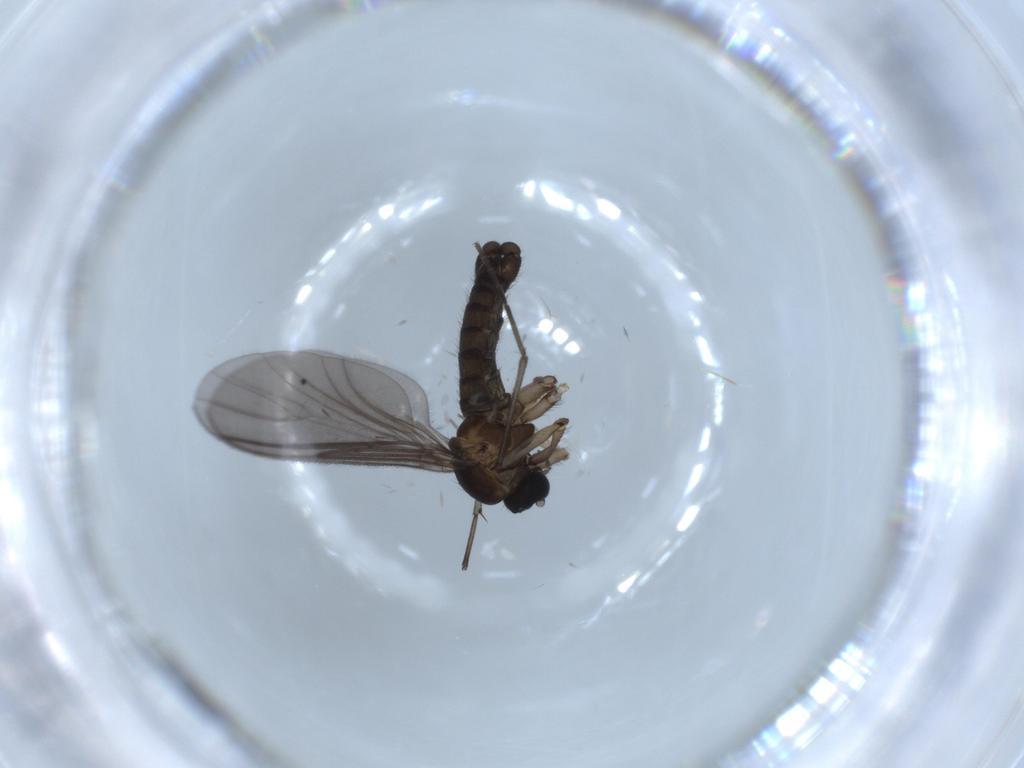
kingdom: Animalia
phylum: Arthropoda
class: Insecta
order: Diptera
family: Sciaridae
